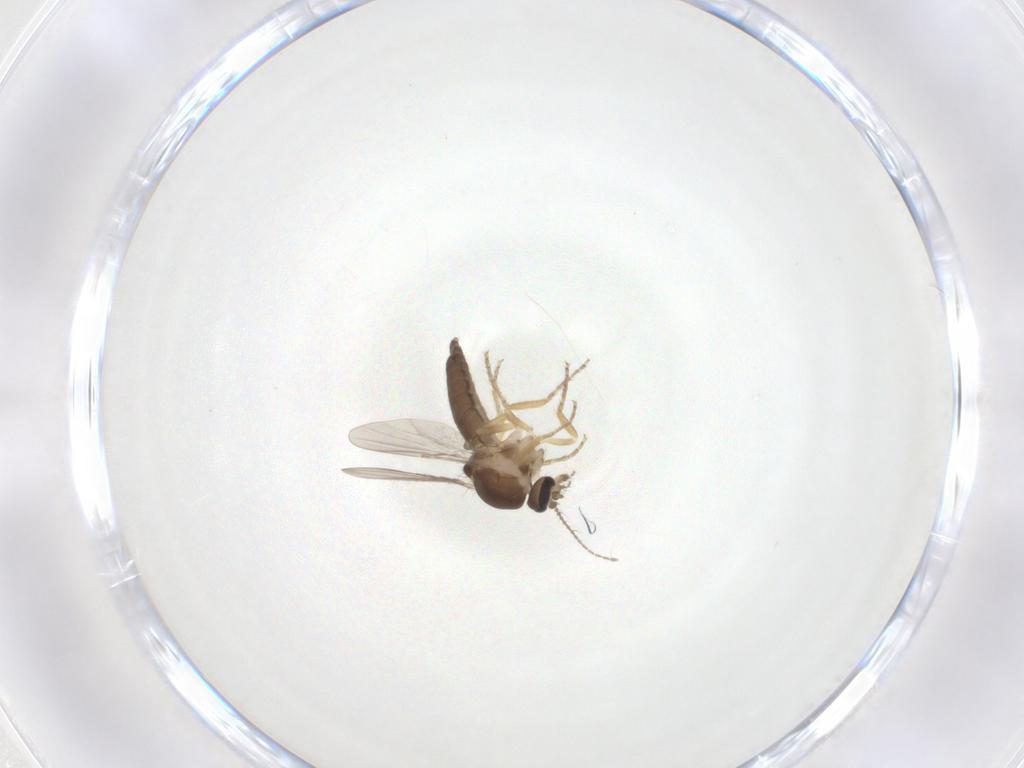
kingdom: Animalia
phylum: Arthropoda
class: Insecta
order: Diptera
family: Ceratopogonidae
